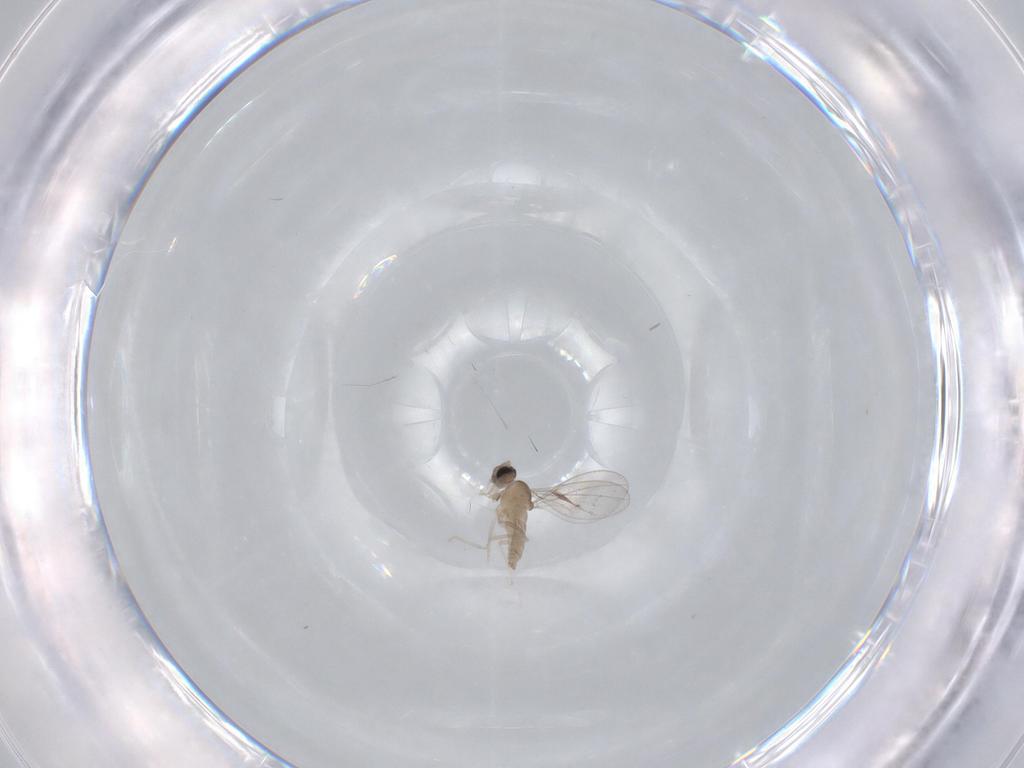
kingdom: Animalia
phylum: Arthropoda
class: Insecta
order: Diptera
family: Cecidomyiidae
